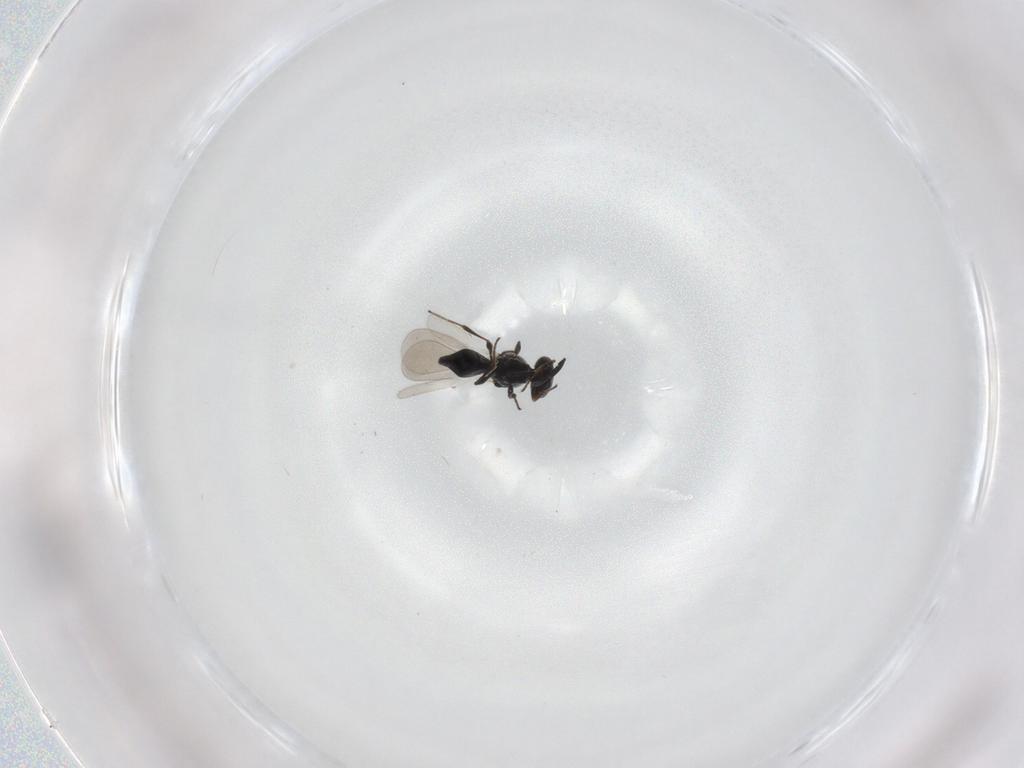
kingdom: Animalia
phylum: Arthropoda
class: Insecta
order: Hymenoptera
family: Platygastridae
